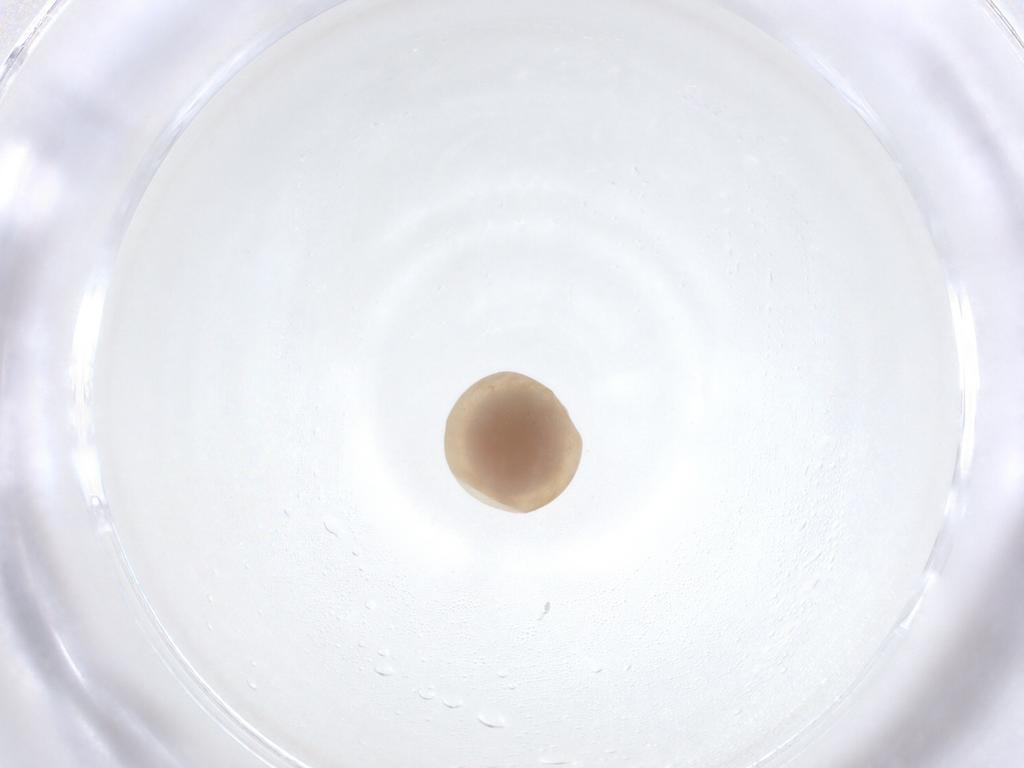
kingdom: Animalia
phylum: Arthropoda
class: Insecta
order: Diptera
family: Dolichopodidae
